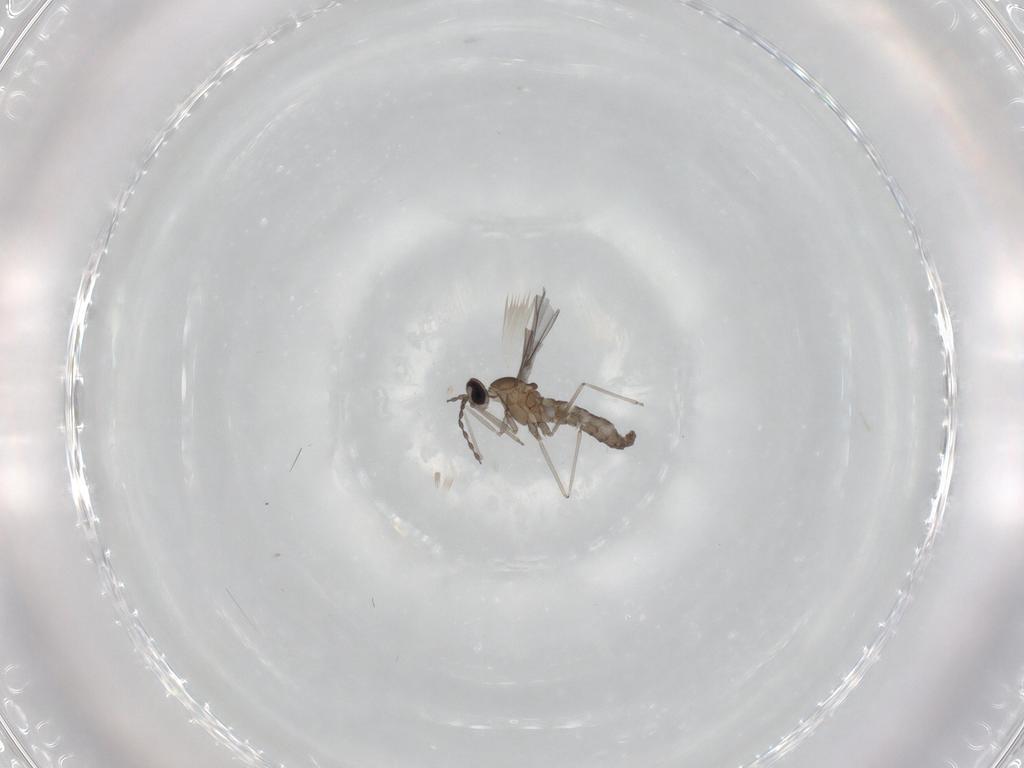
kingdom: Animalia
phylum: Arthropoda
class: Insecta
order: Diptera
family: Cecidomyiidae
